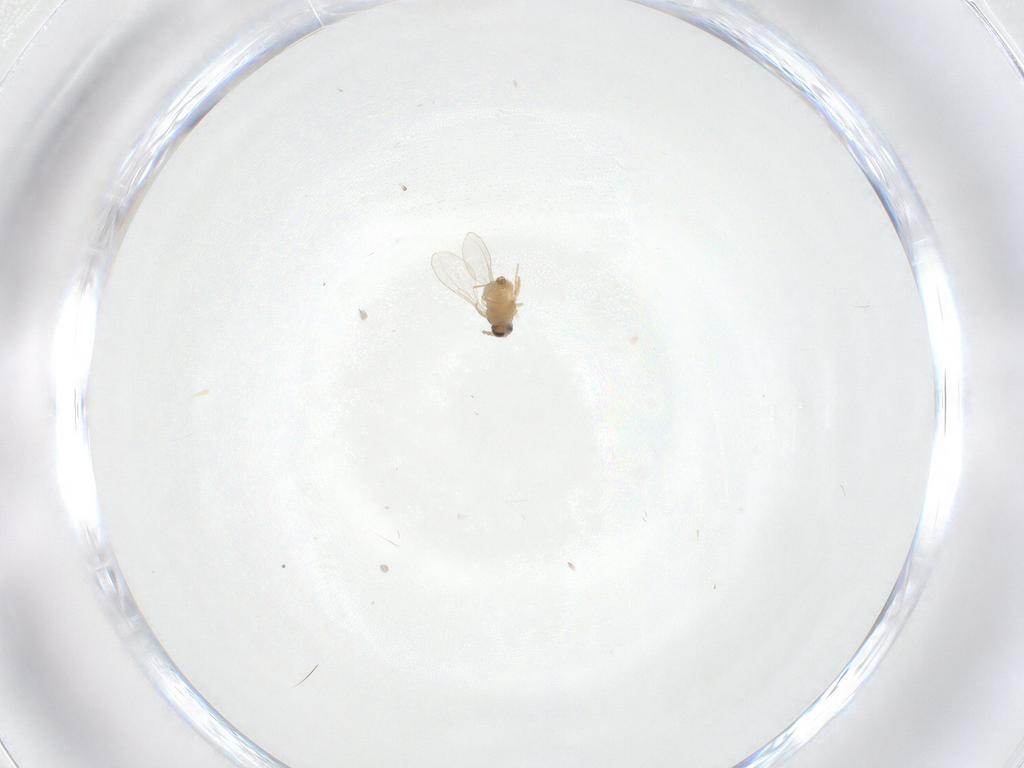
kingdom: Animalia
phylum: Arthropoda
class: Insecta
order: Diptera
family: Cecidomyiidae
